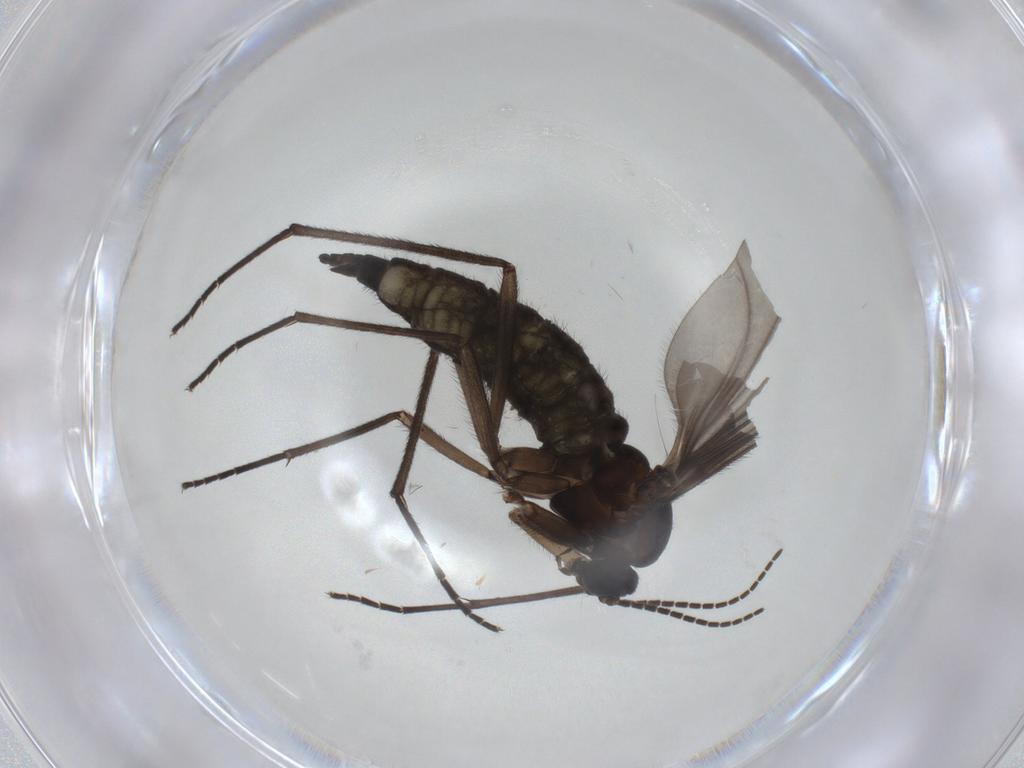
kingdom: Animalia
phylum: Arthropoda
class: Insecta
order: Diptera
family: Sciaridae
